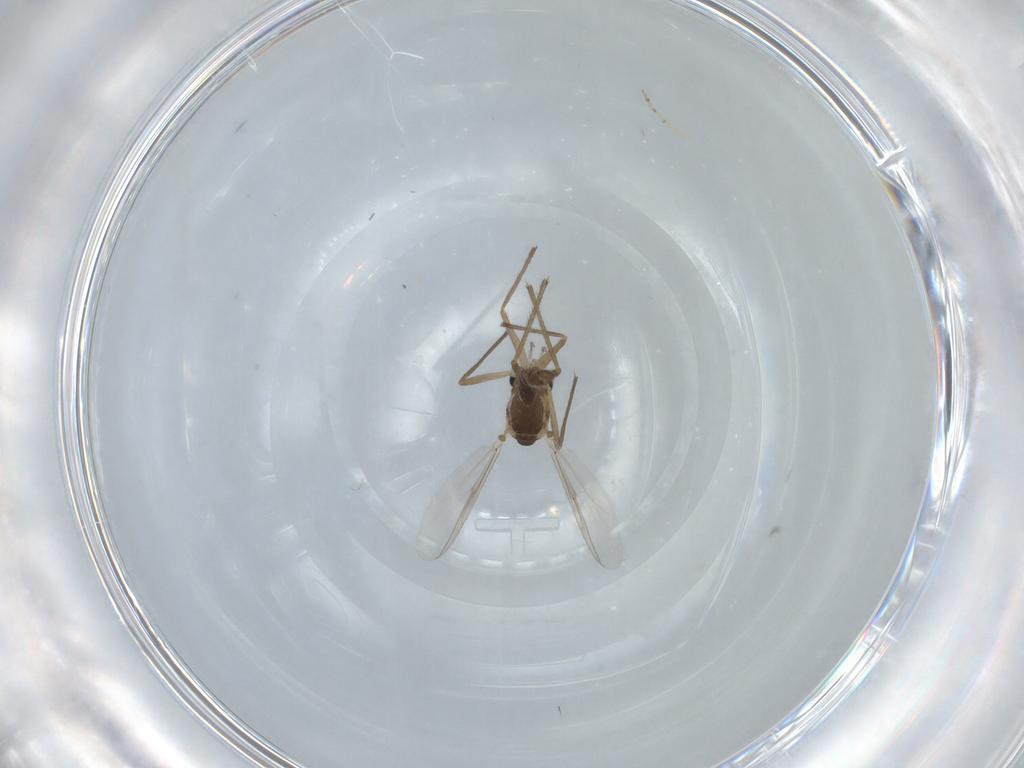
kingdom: Animalia
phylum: Arthropoda
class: Insecta
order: Diptera
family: Chironomidae
